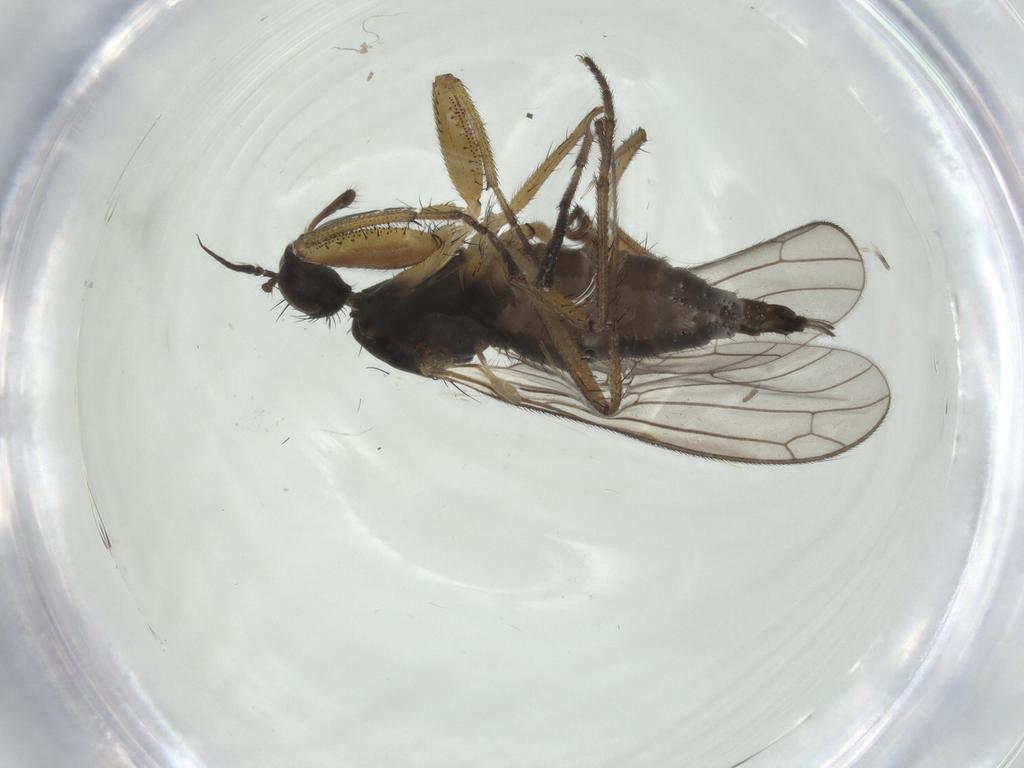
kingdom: Animalia
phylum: Arthropoda
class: Insecta
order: Diptera
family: Empididae
